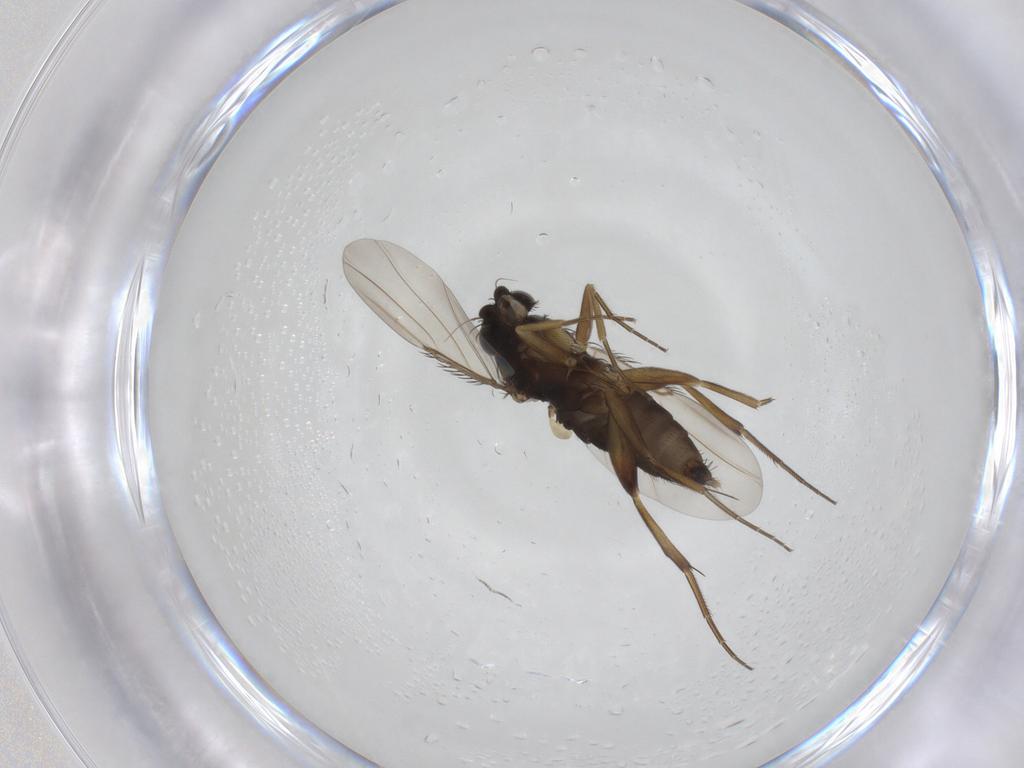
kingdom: Animalia
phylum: Arthropoda
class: Insecta
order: Diptera
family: Phoridae
